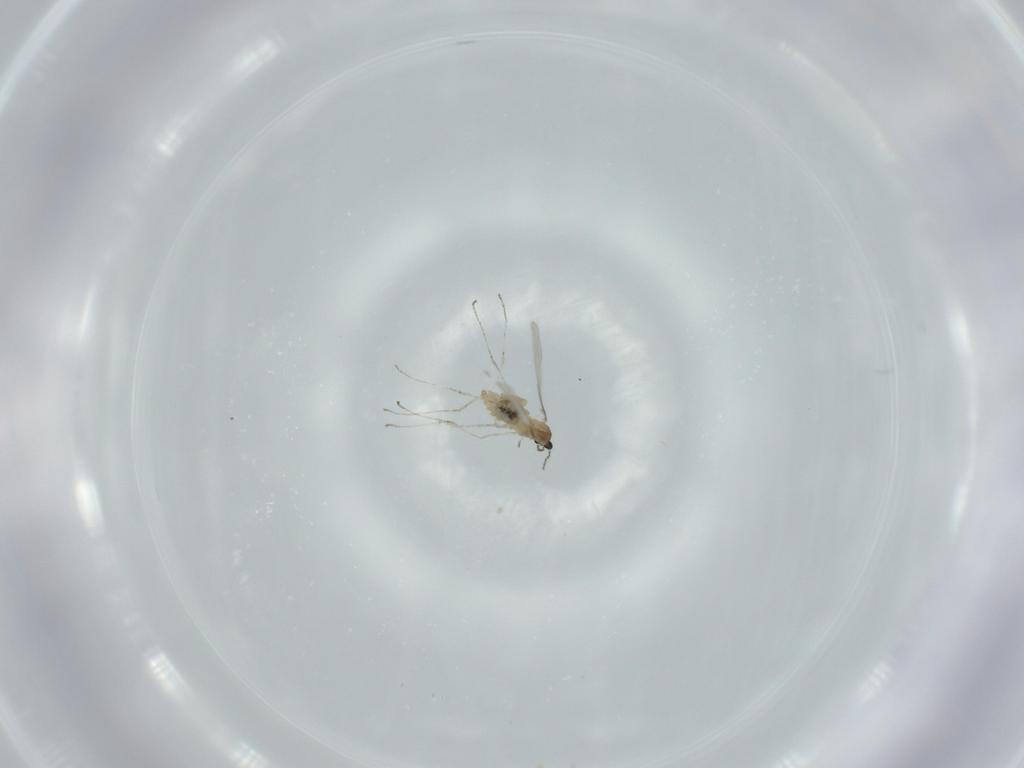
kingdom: Animalia
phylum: Arthropoda
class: Insecta
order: Diptera
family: Cecidomyiidae
